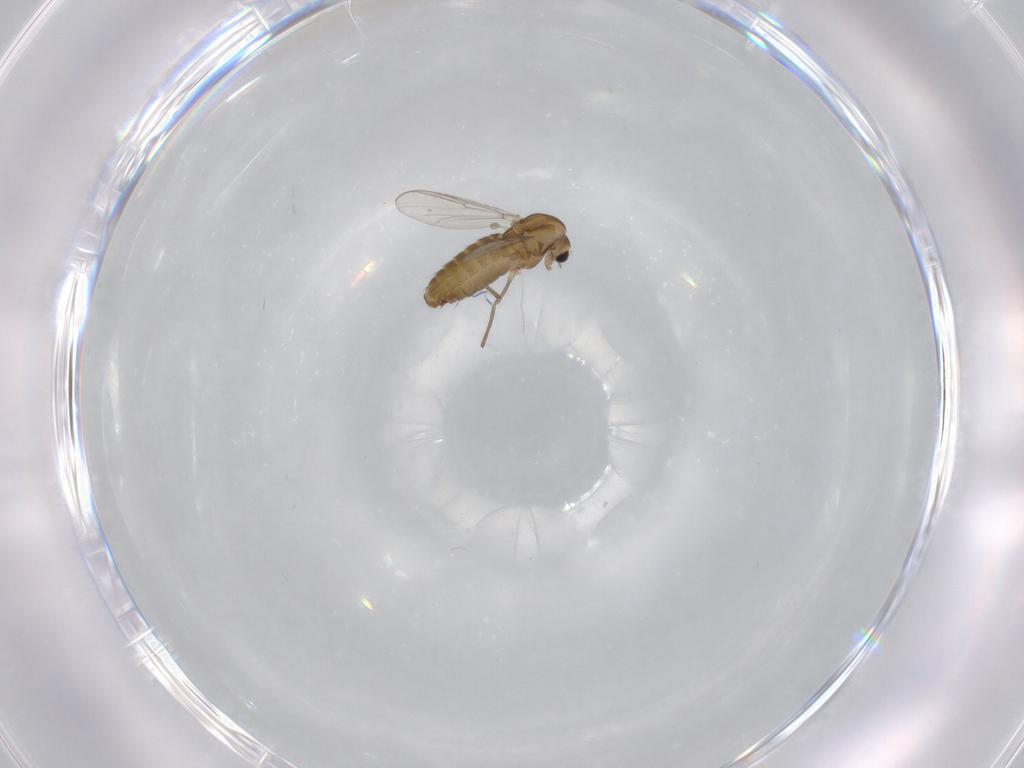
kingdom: Animalia
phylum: Arthropoda
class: Insecta
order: Diptera
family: Chironomidae
